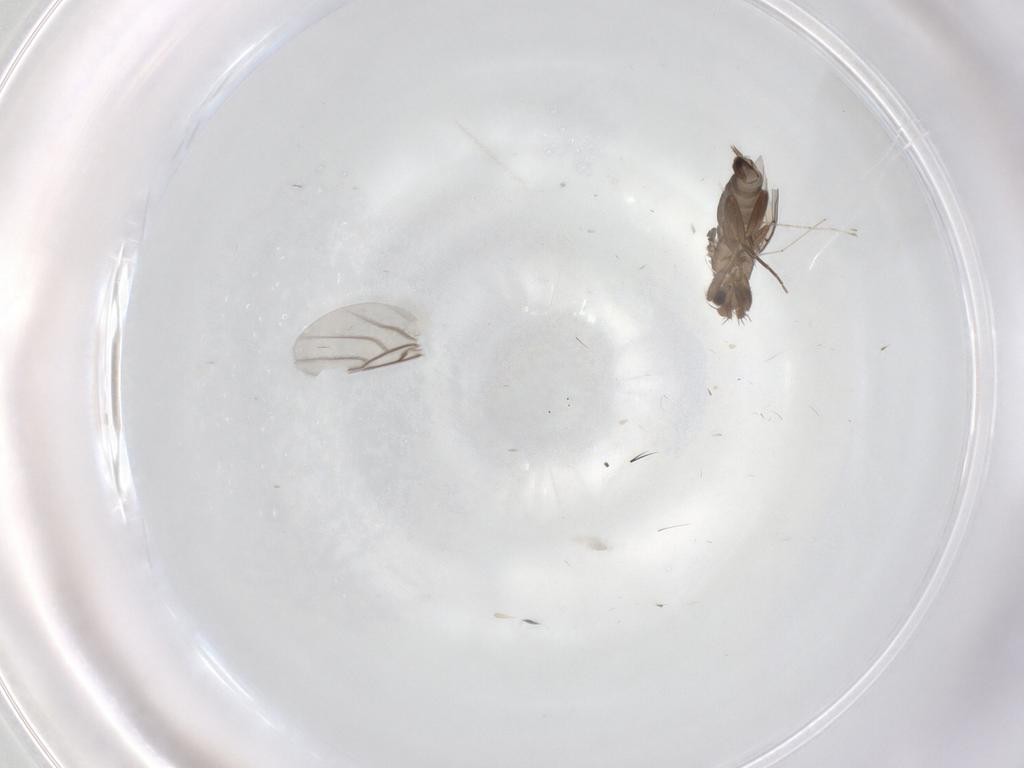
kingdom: Animalia
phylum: Arthropoda
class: Insecta
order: Diptera
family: Phoridae
